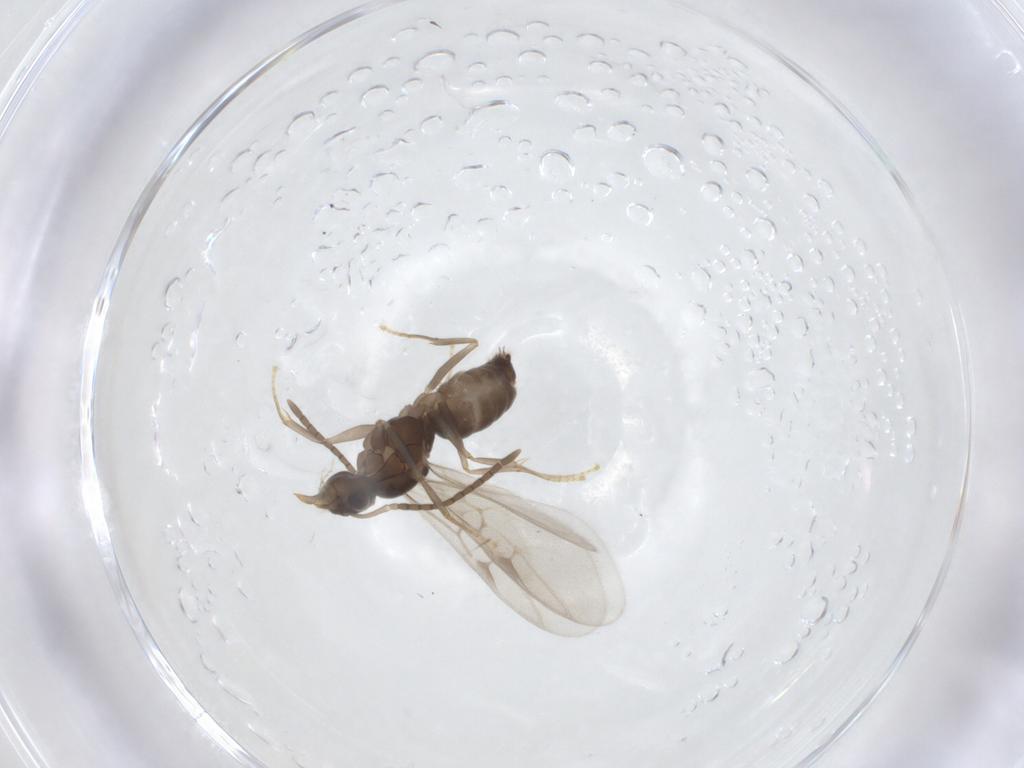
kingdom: Animalia
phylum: Arthropoda
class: Insecta
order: Hymenoptera
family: Formicidae
